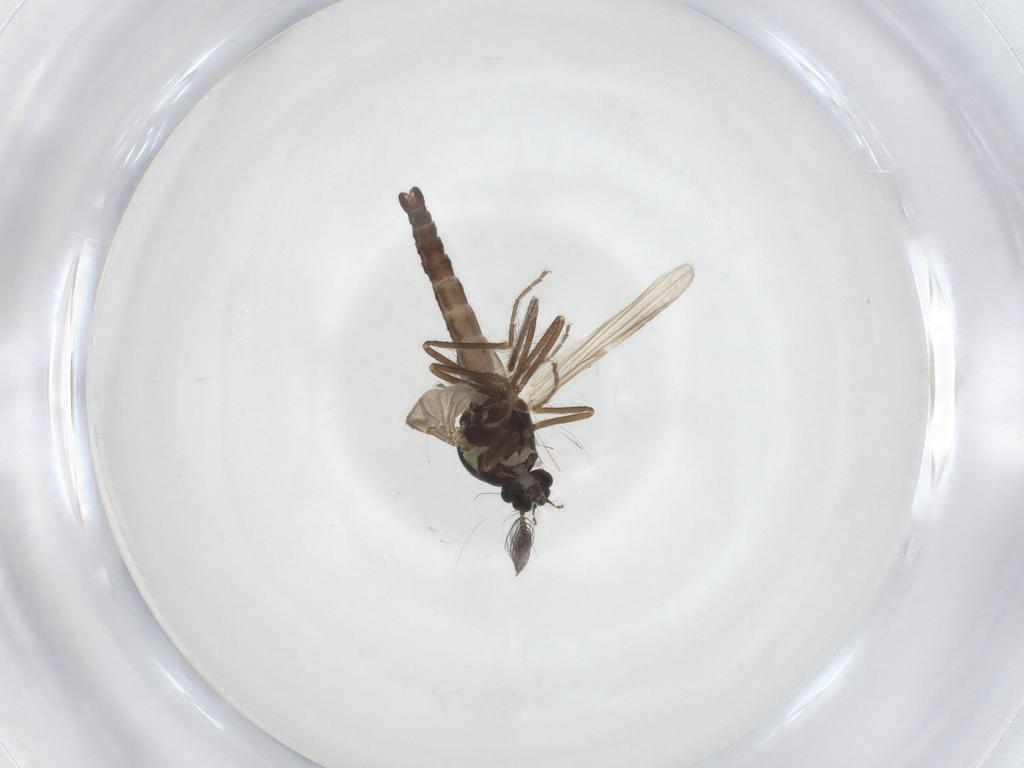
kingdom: Animalia
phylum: Arthropoda
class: Insecta
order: Diptera
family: Ceratopogonidae
